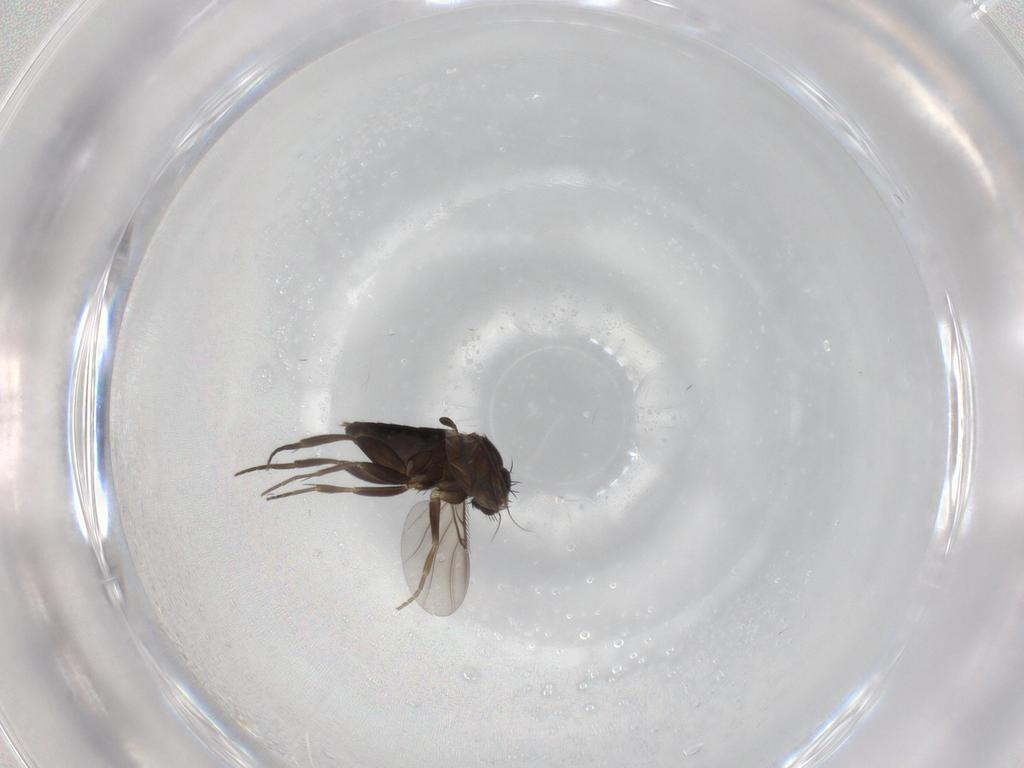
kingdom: Animalia
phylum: Arthropoda
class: Insecta
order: Diptera
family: Phoridae
